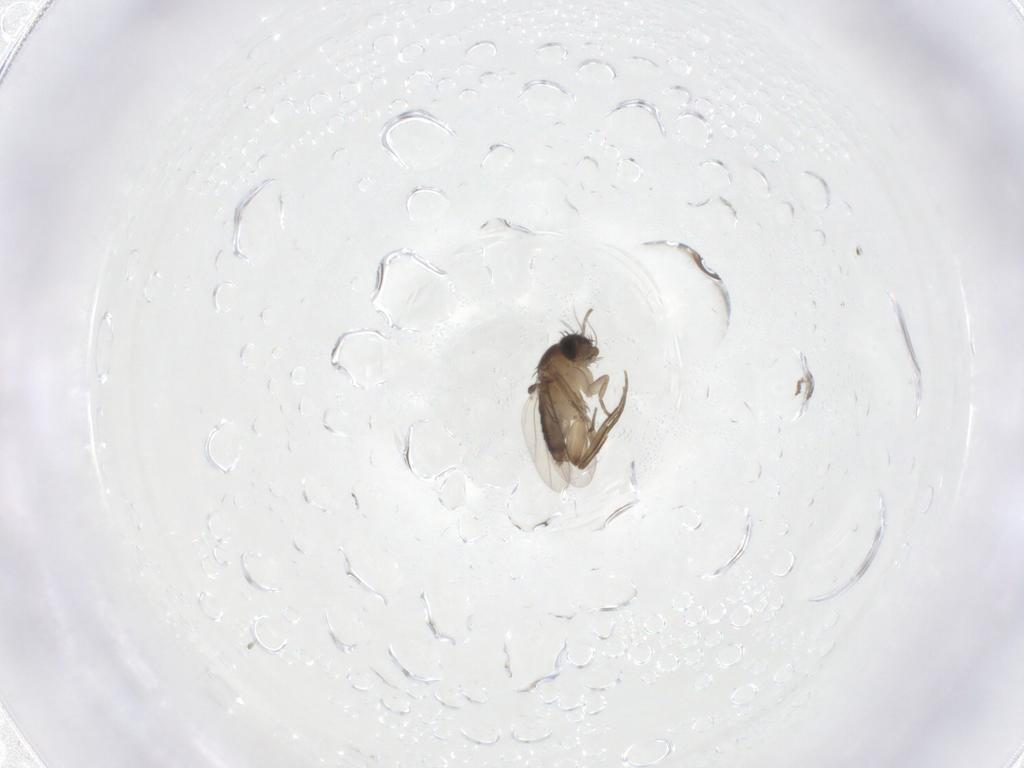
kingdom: Animalia
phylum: Arthropoda
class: Insecta
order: Diptera
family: Phoridae
